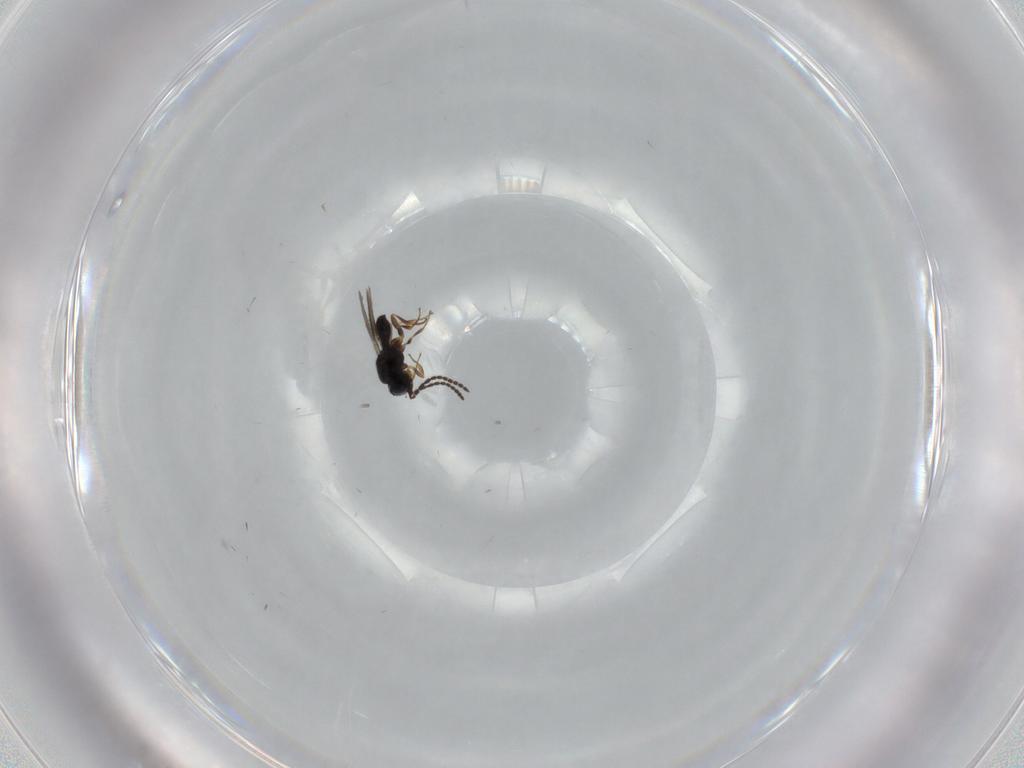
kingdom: Animalia
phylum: Arthropoda
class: Insecta
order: Hymenoptera
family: Scelionidae
